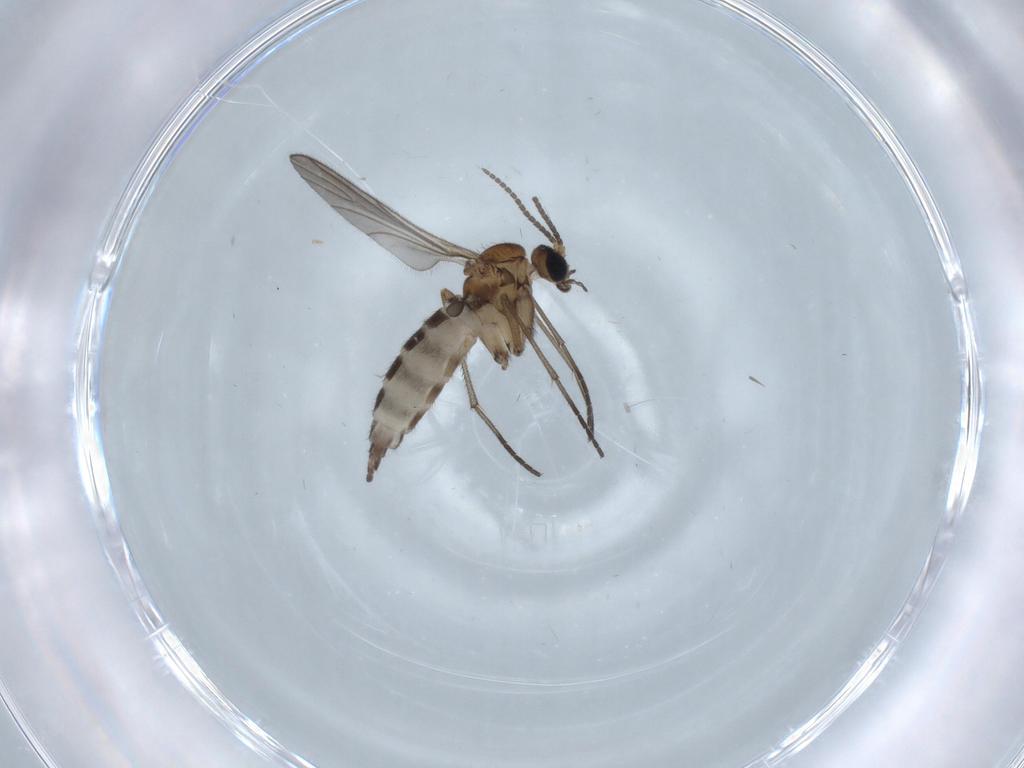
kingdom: Animalia
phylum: Arthropoda
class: Insecta
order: Diptera
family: Sciaridae
